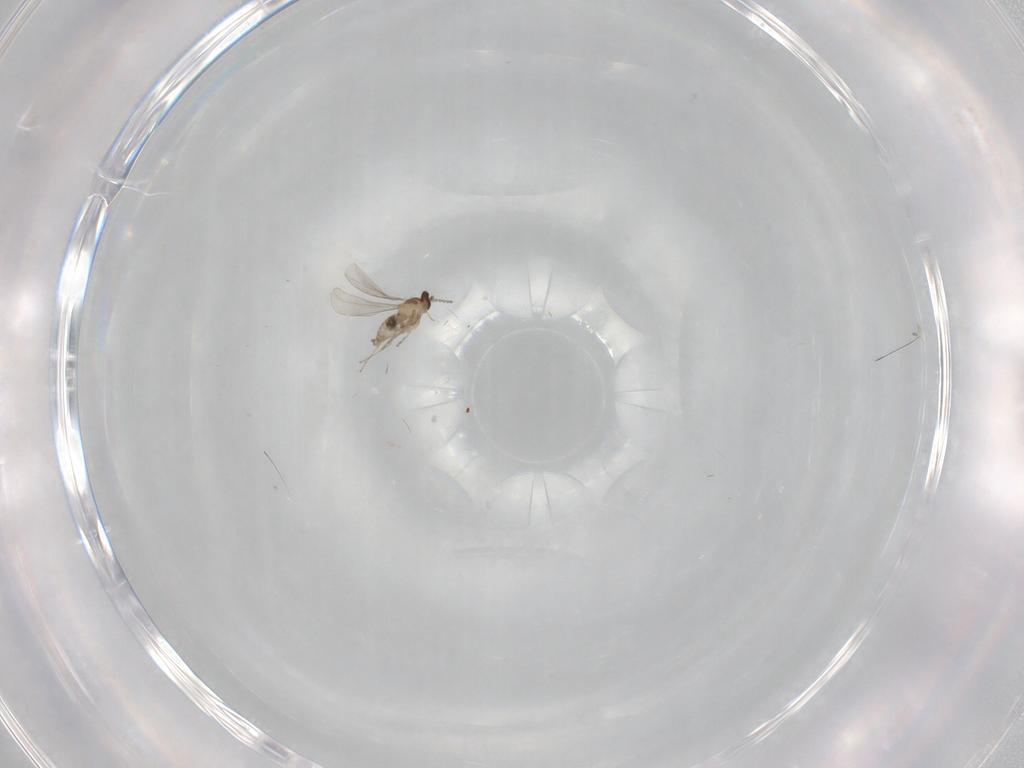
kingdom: Animalia
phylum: Arthropoda
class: Insecta
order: Diptera
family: Cecidomyiidae
